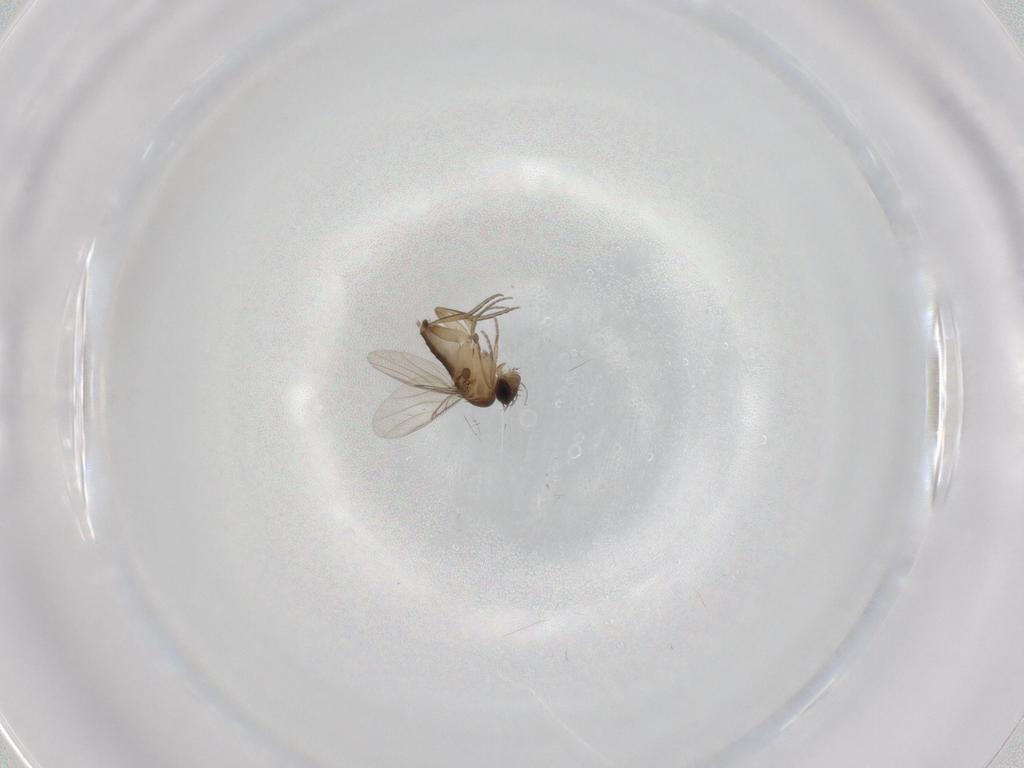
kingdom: Animalia
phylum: Arthropoda
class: Insecta
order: Diptera
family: Phoridae
